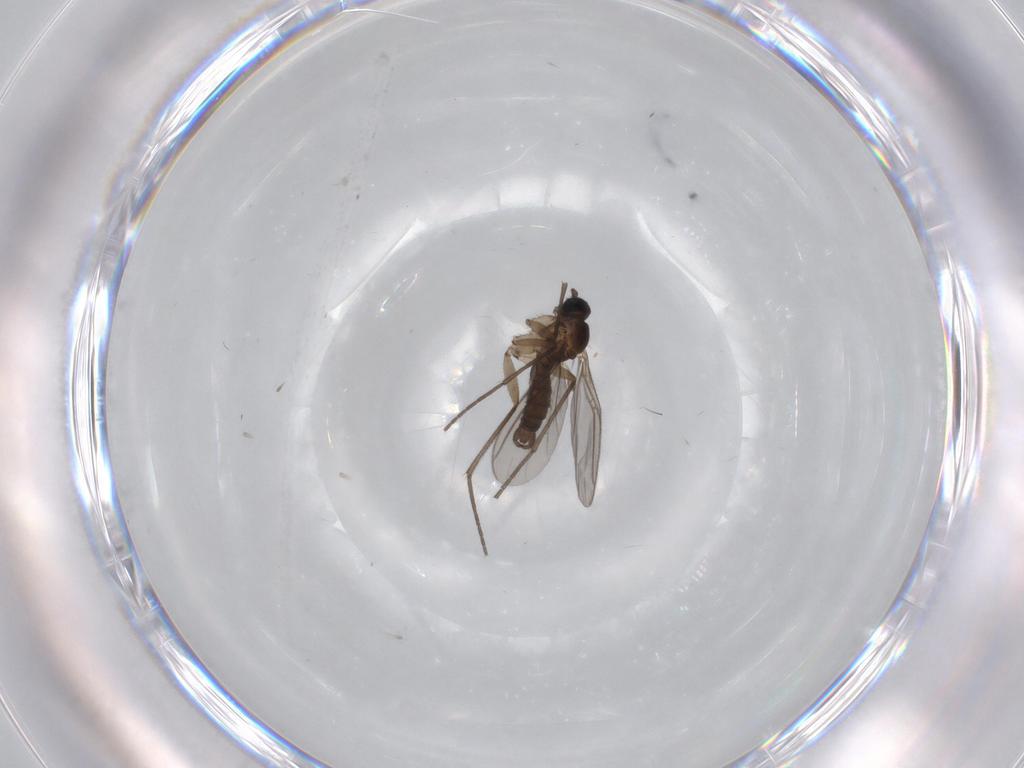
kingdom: Animalia
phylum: Arthropoda
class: Insecta
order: Diptera
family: Sciaridae
